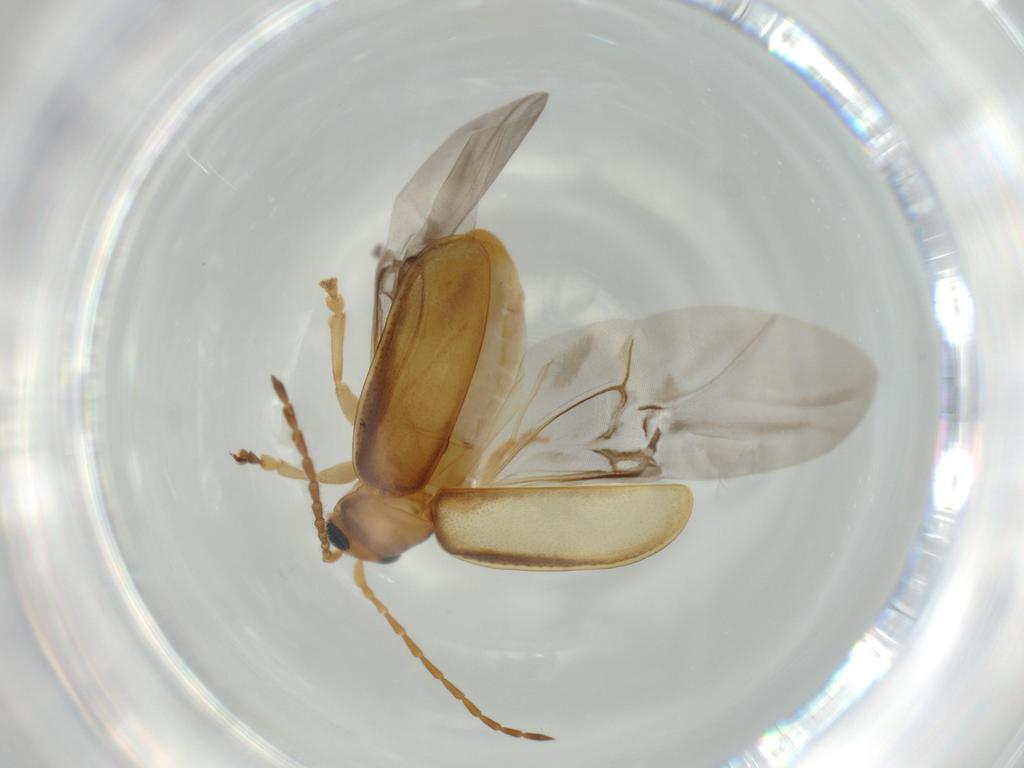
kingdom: Animalia
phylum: Arthropoda
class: Insecta
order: Coleoptera
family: Chrysomelidae
